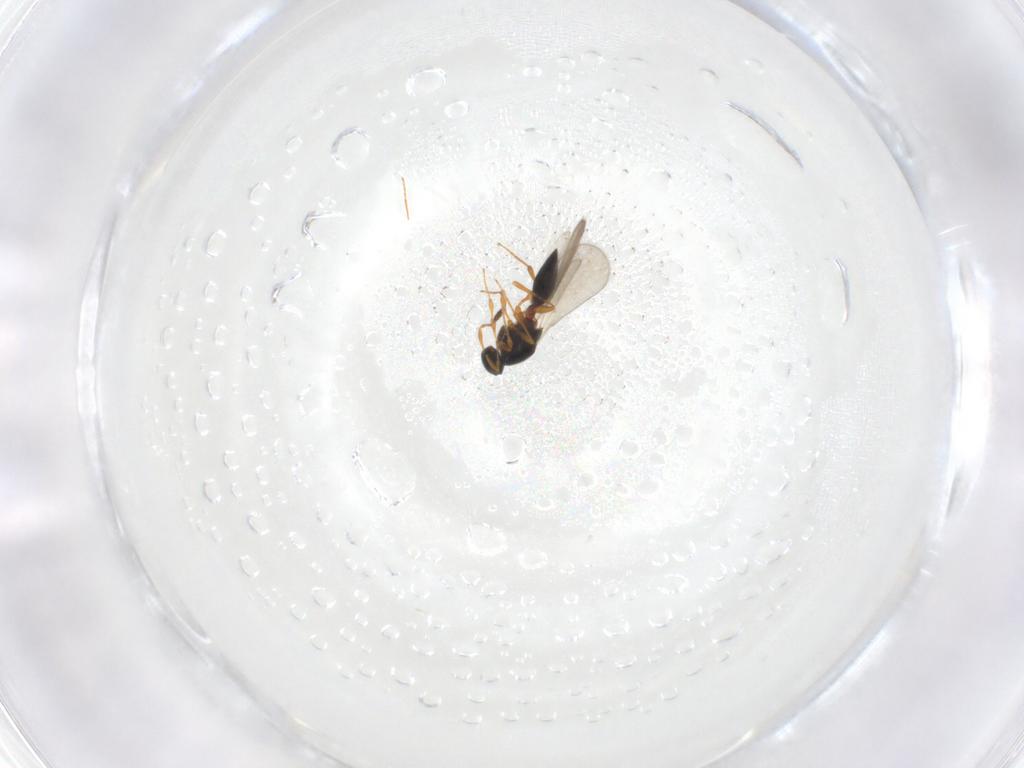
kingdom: Animalia
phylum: Arthropoda
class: Insecta
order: Hymenoptera
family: Platygastridae
